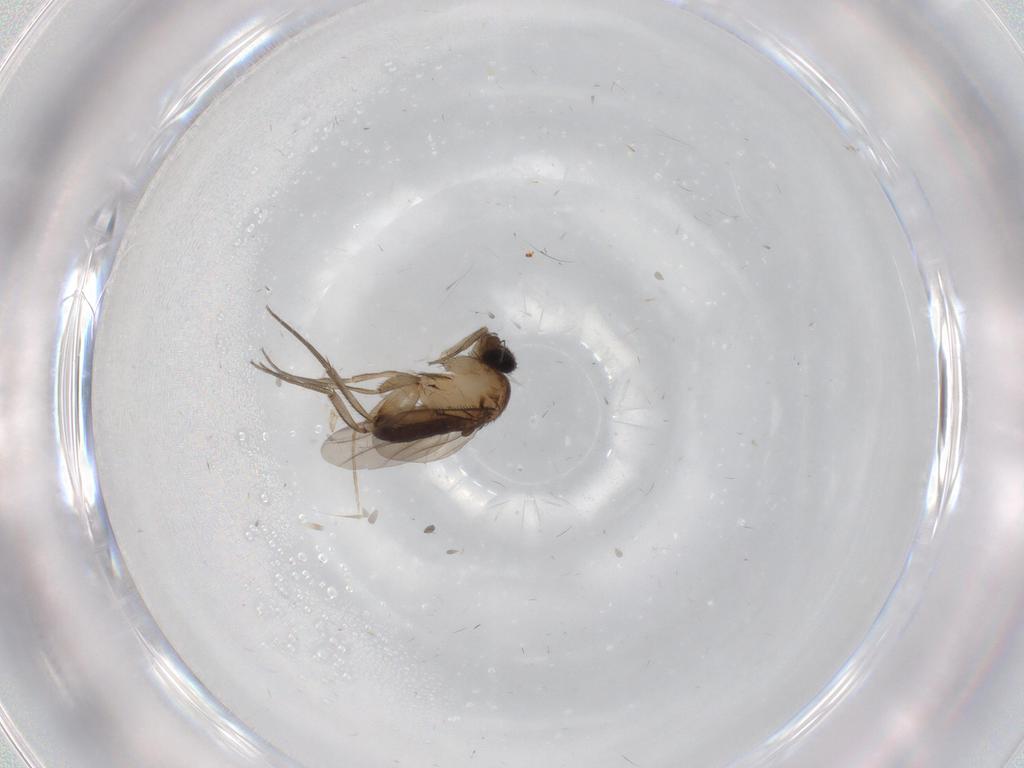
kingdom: Animalia
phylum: Arthropoda
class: Insecta
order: Diptera
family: Phoridae
